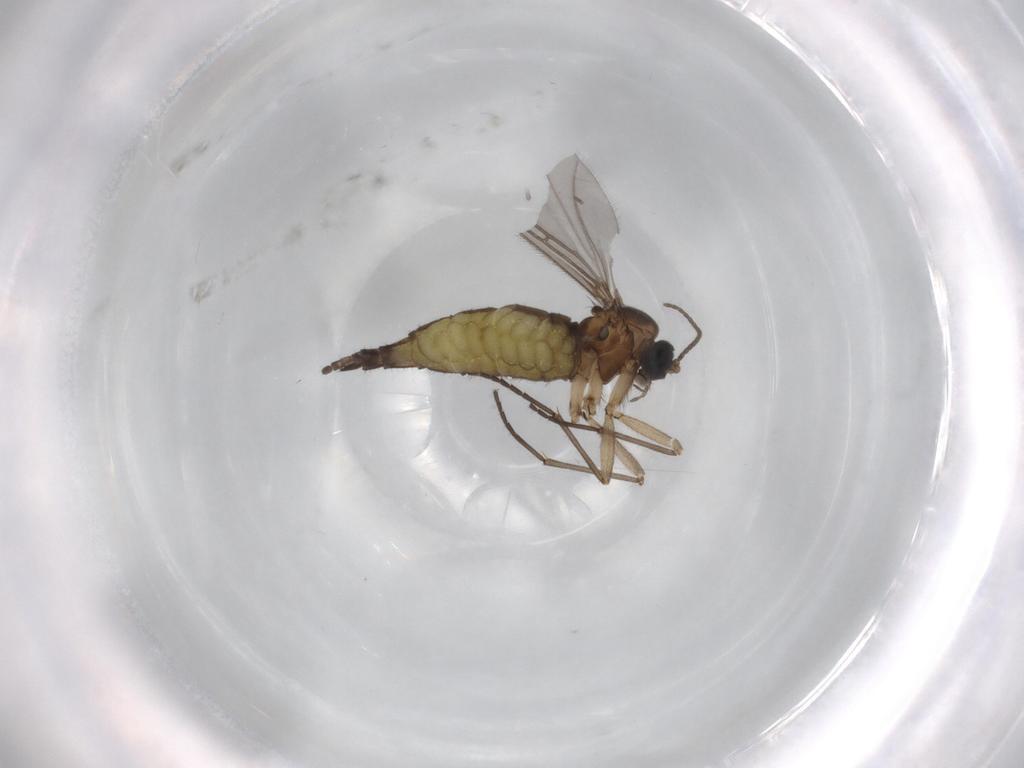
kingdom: Animalia
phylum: Arthropoda
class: Insecta
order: Diptera
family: Sciaridae
